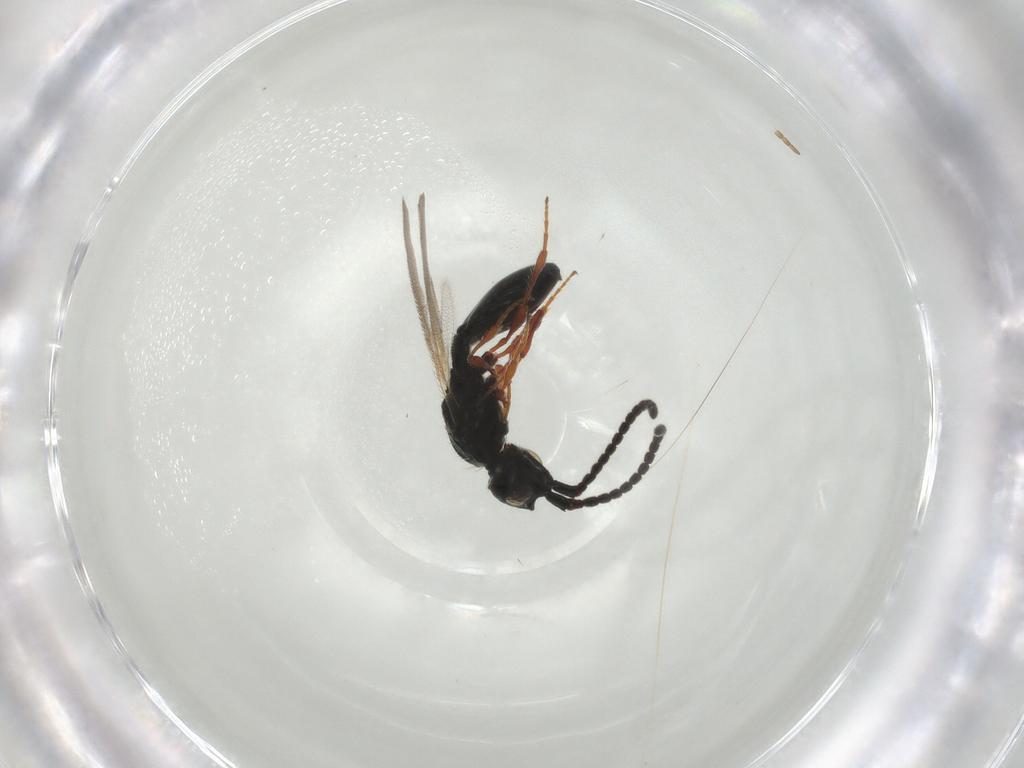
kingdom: Animalia
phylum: Arthropoda
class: Insecta
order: Hymenoptera
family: Diapriidae
